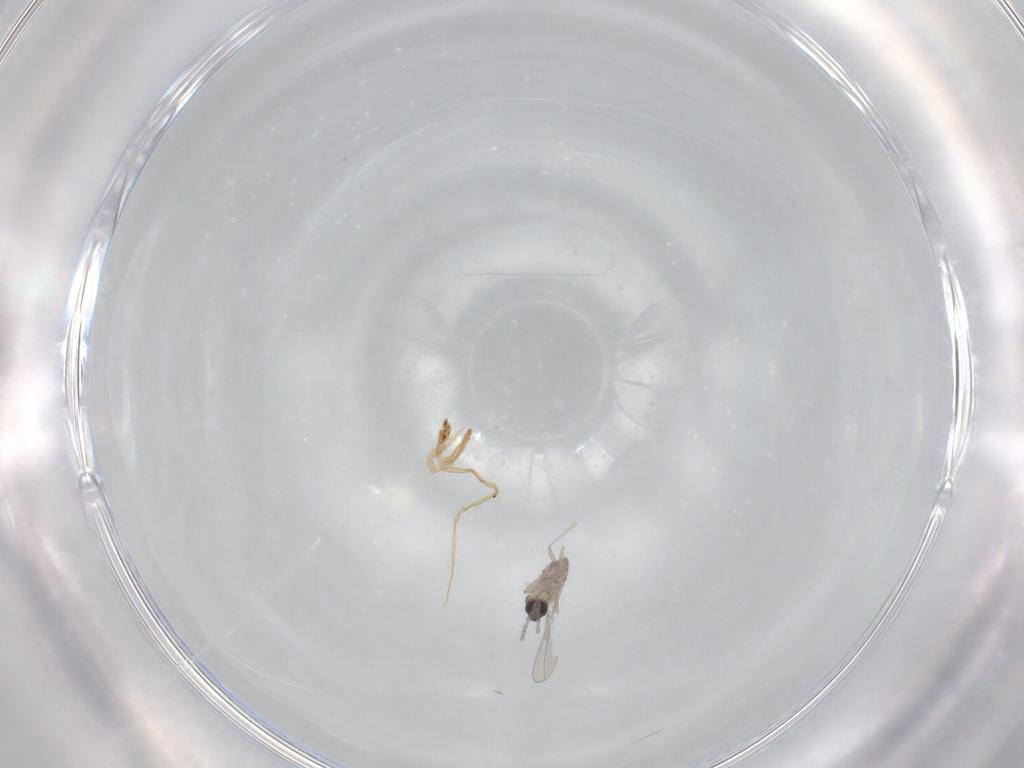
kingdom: Animalia
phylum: Arthropoda
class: Insecta
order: Diptera
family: Cecidomyiidae
